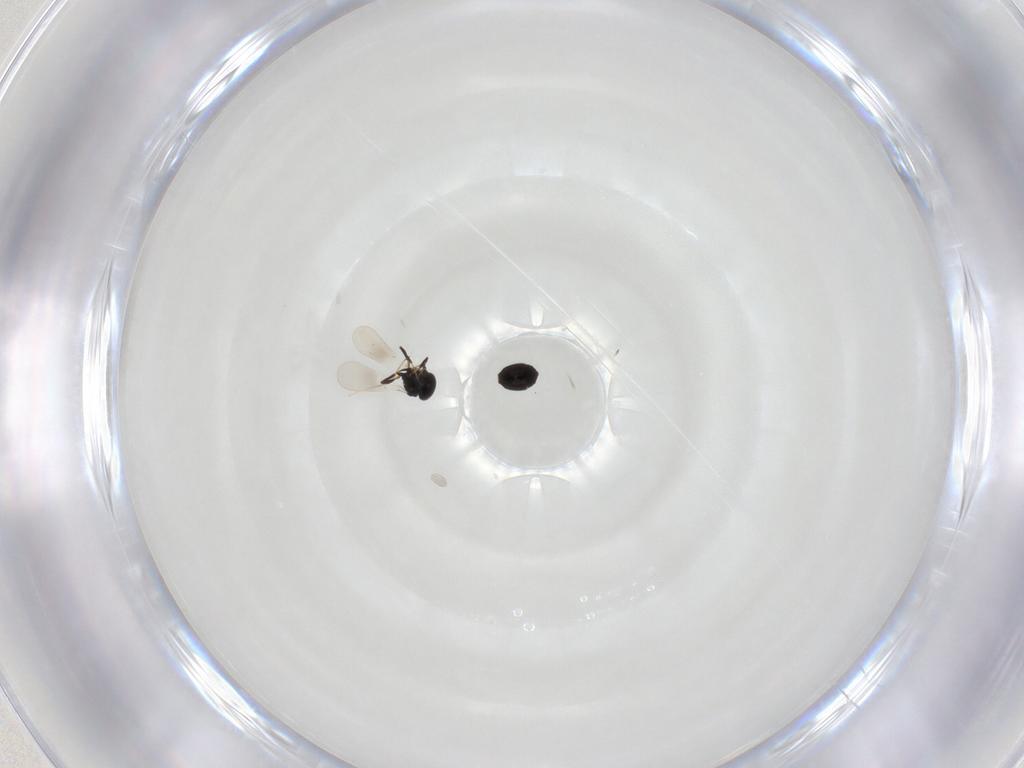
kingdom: Animalia
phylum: Arthropoda
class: Insecta
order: Hymenoptera
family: Platygastridae
